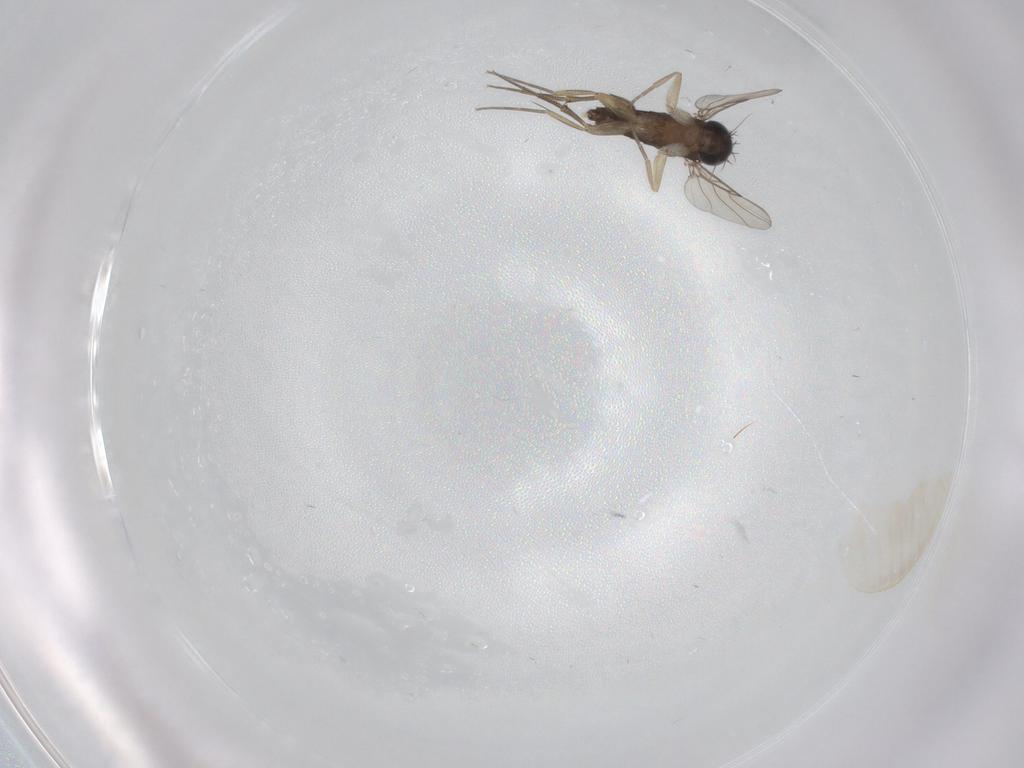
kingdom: Animalia
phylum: Arthropoda
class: Insecta
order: Diptera
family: Phoridae
